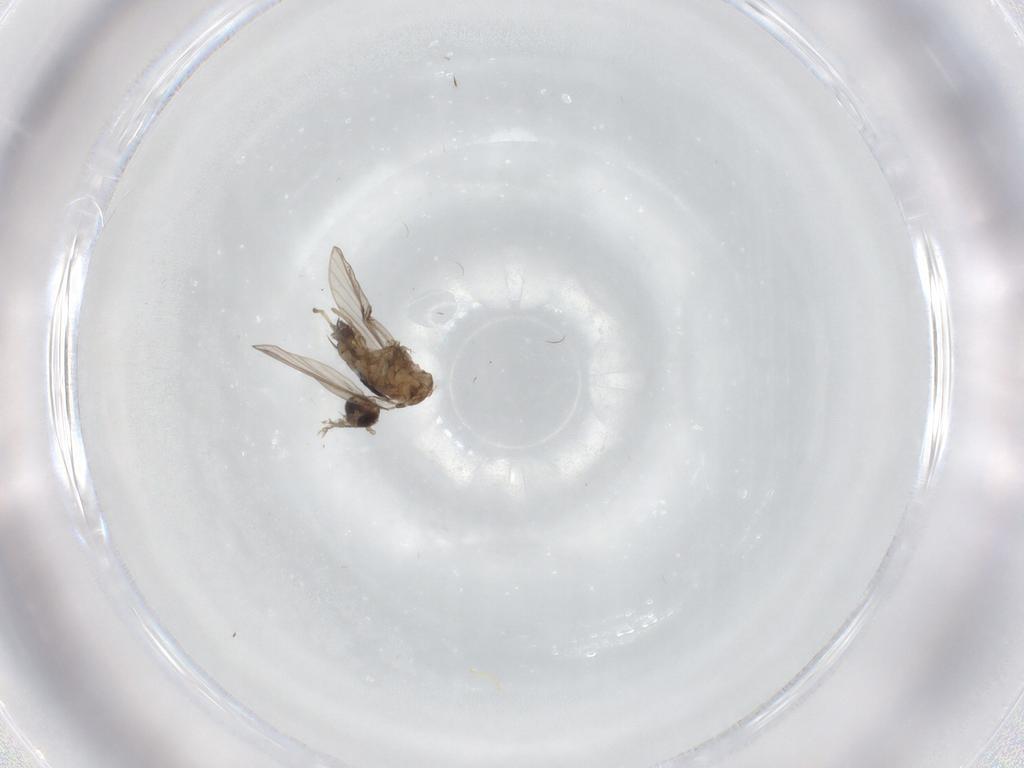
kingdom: Animalia
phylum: Arthropoda
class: Insecta
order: Diptera
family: Psychodidae
